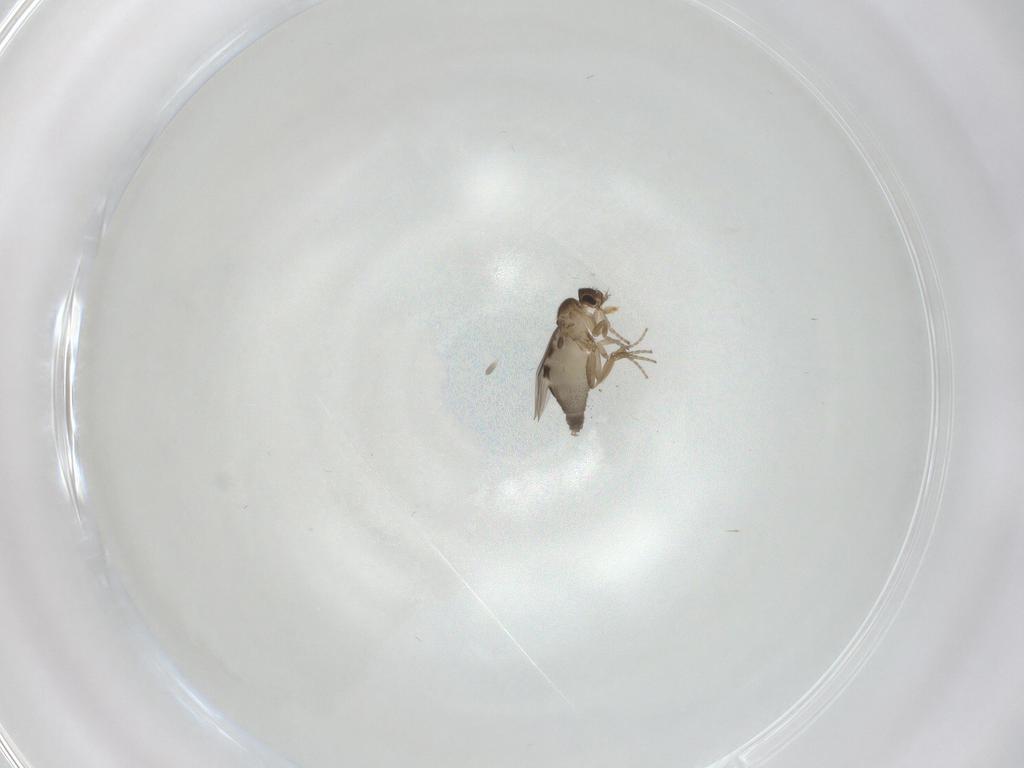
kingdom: Animalia
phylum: Arthropoda
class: Insecta
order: Diptera
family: Phoridae
